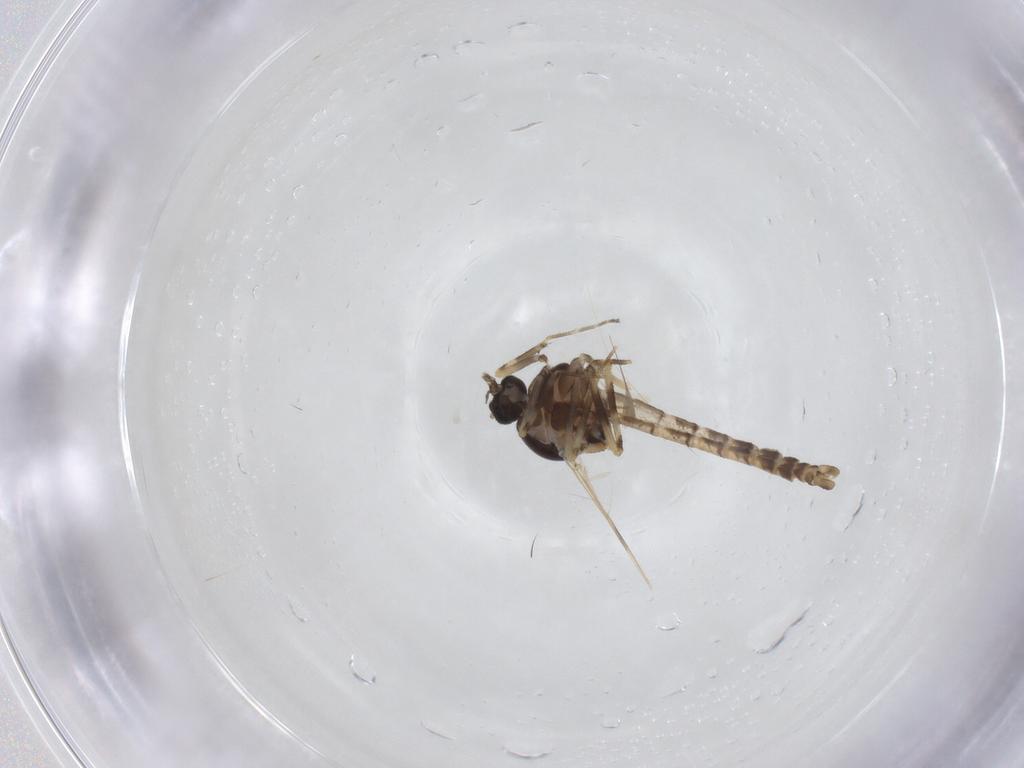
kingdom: Animalia
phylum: Arthropoda
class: Insecta
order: Diptera
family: Ceratopogonidae
